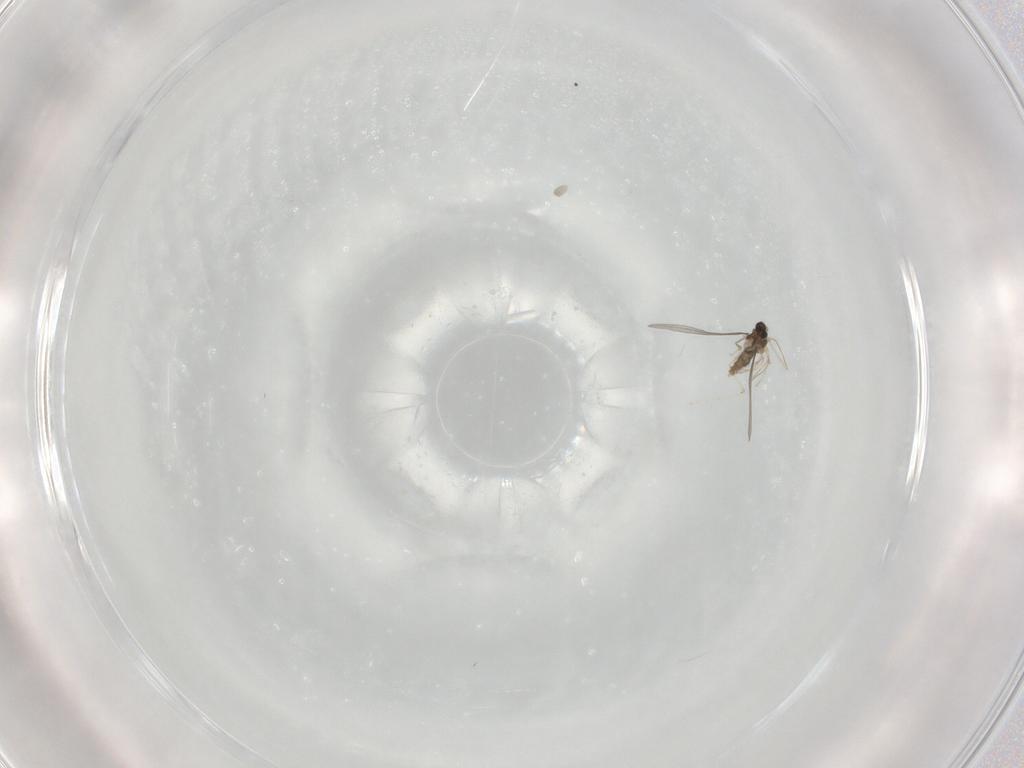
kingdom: Animalia
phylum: Arthropoda
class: Insecta
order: Diptera
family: Cecidomyiidae
